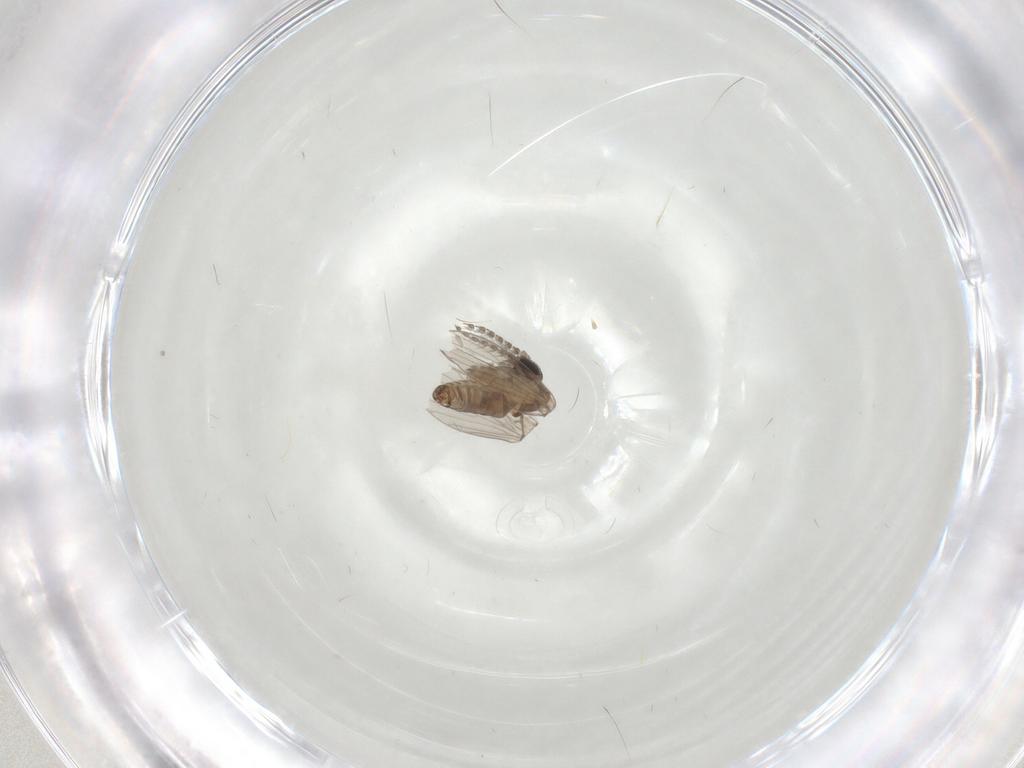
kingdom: Animalia
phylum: Arthropoda
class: Insecta
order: Diptera
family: Psychodidae
